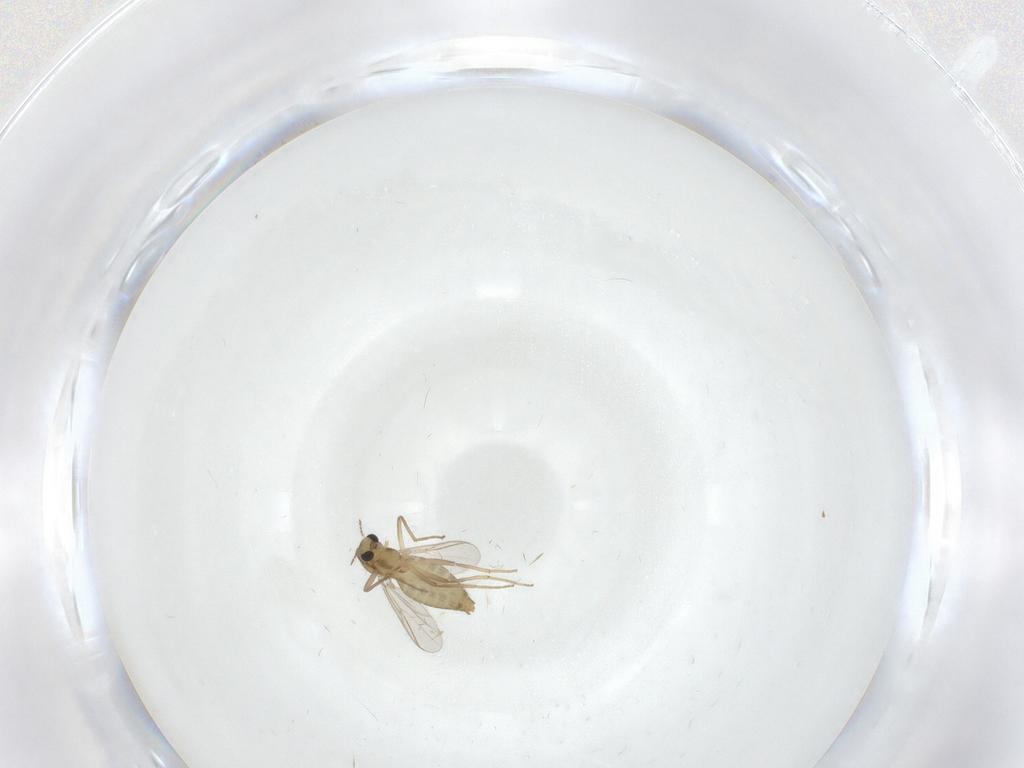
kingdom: Animalia
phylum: Arthropoda
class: Insecta
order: Diptera
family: Chironomidae
